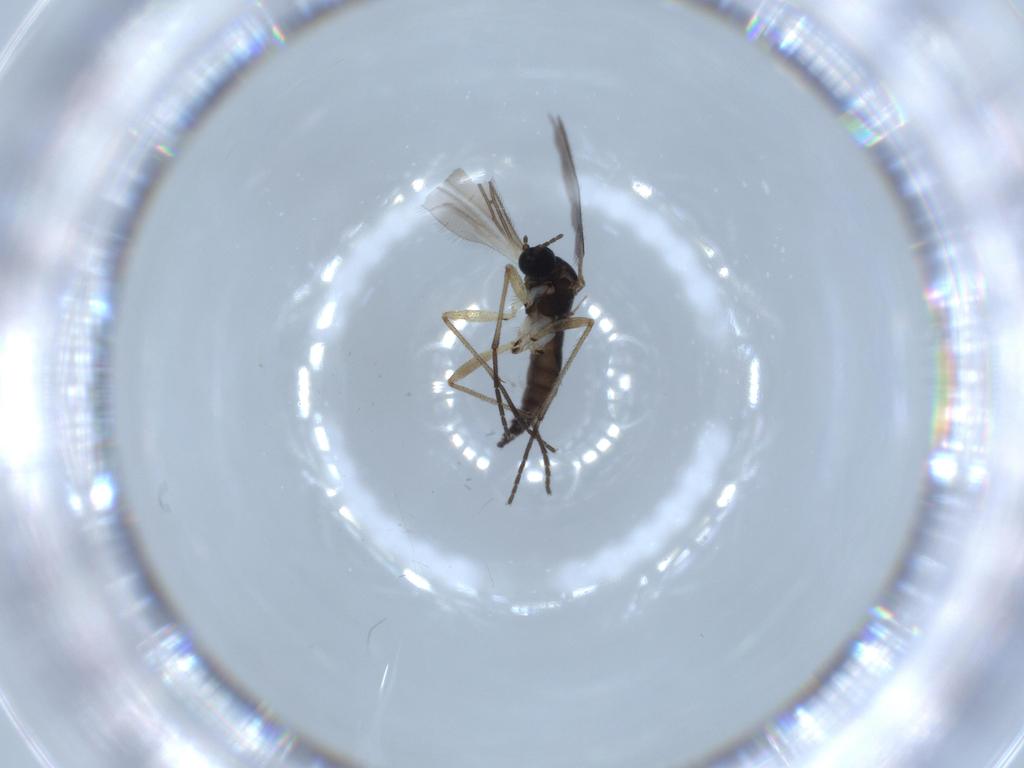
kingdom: Animalia
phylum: Arthropoda
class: Insecta
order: Diptera
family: Sciaridae
